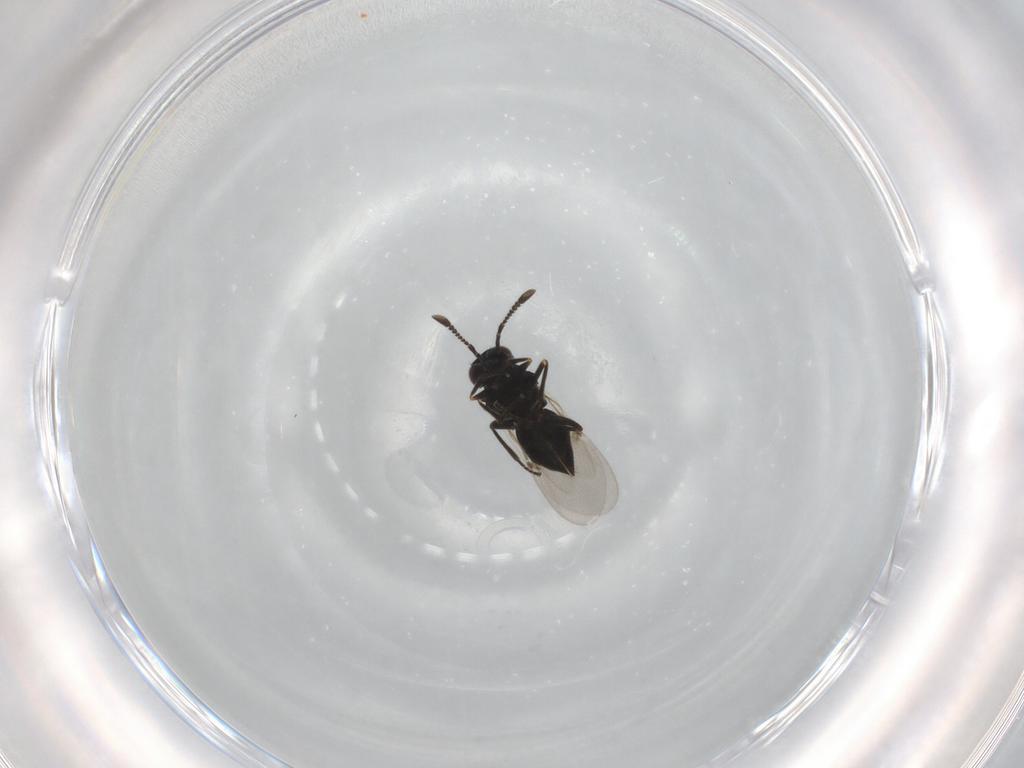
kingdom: Animalia
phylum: Arthropoda
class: Insecta
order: Hymenoptera
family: Encyrtidae
